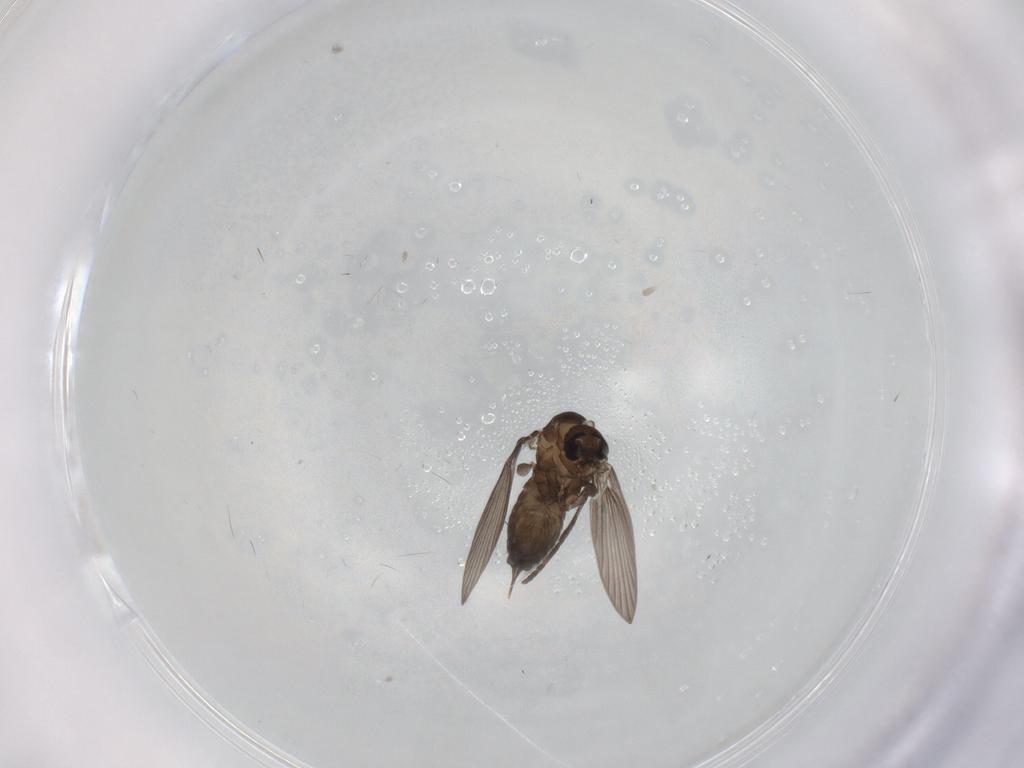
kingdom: Animalia
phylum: Arthropoda
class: Insecta
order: Diptera
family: Psychodidae
